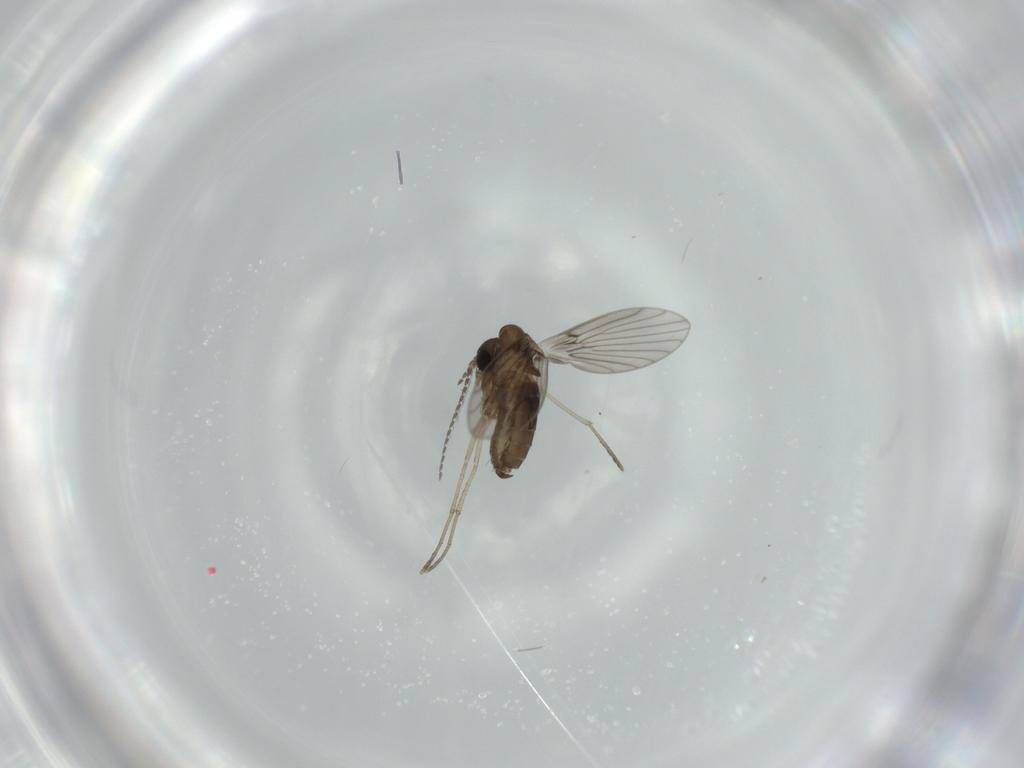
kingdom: Animalia
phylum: Arthropoda
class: Insecta
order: Diptera
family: Psychodidae
